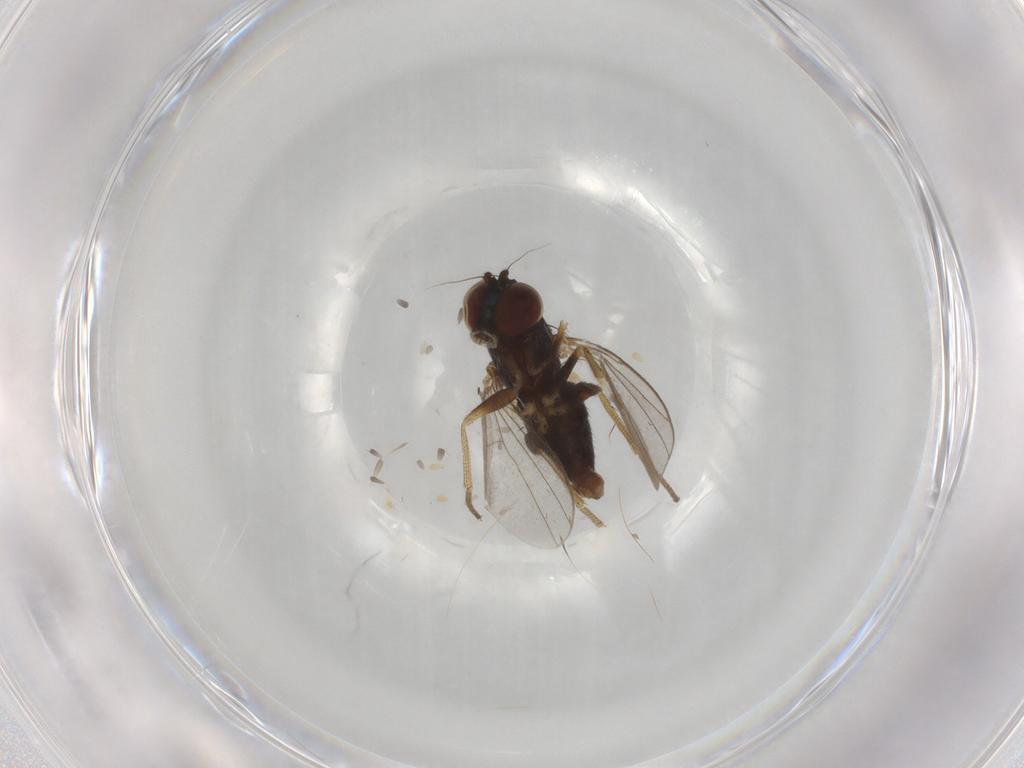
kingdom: Animalia
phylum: Arthropoda
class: Insecta
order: Diptera
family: Dolichopodidae
